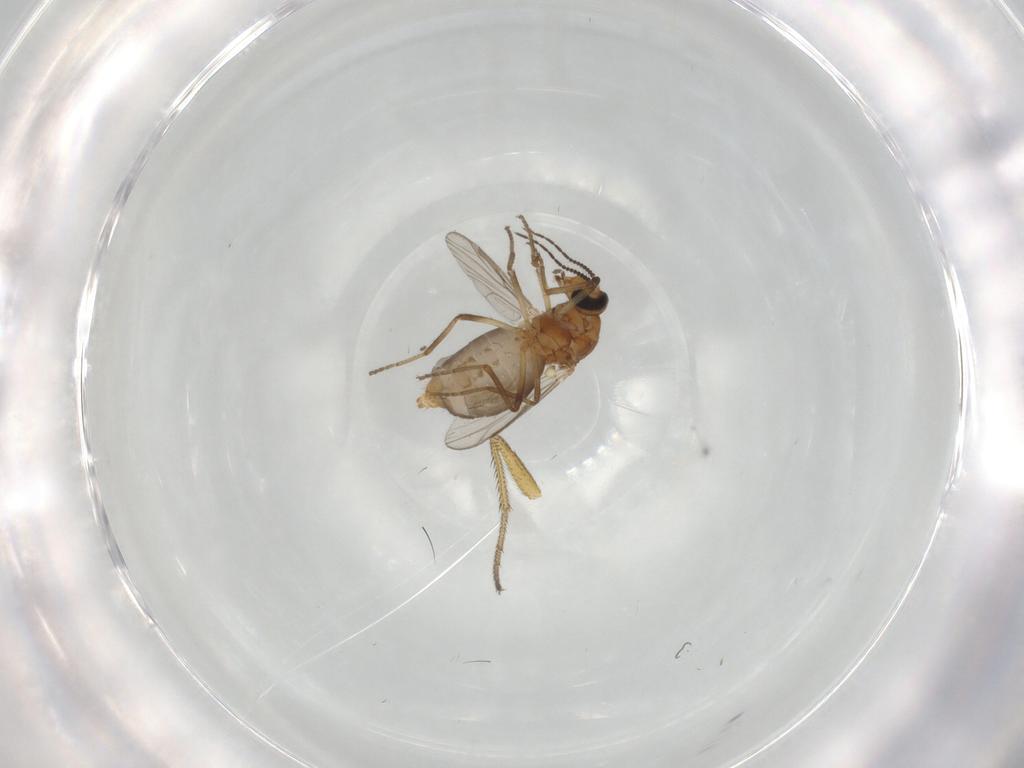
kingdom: Animalia
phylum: Arthropoda
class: Insecta
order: Diptera
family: Ceratopogonidae
